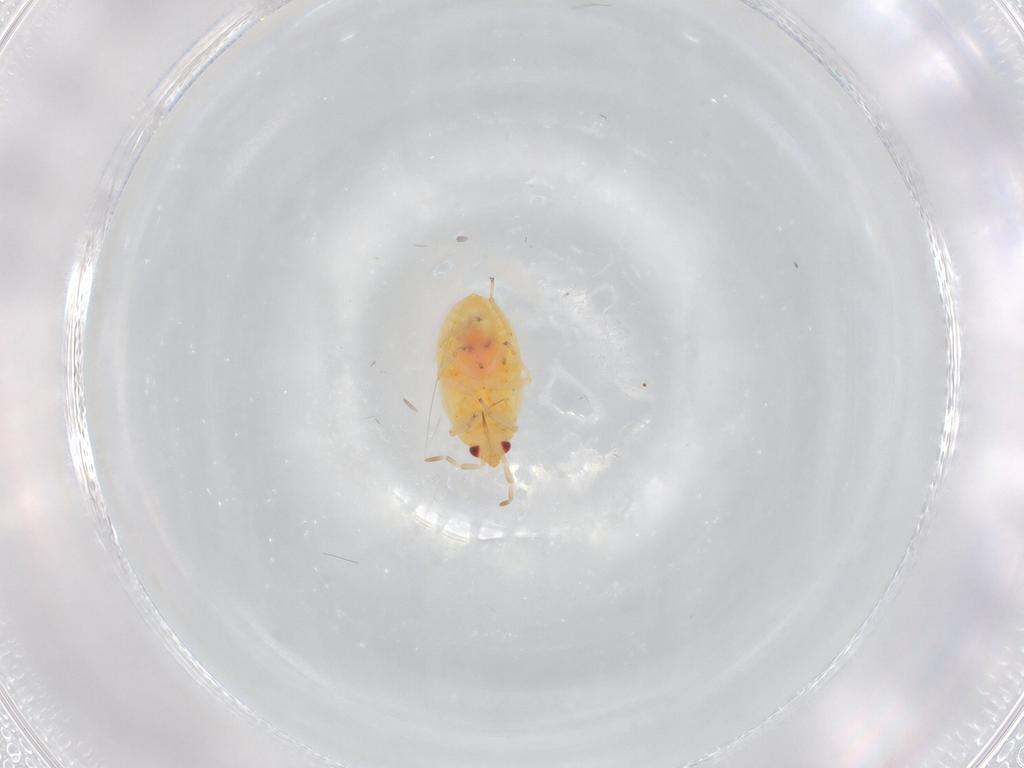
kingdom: Animalia
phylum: Arthropoda
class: Insecta
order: Hemiptera
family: Anthocoridae
